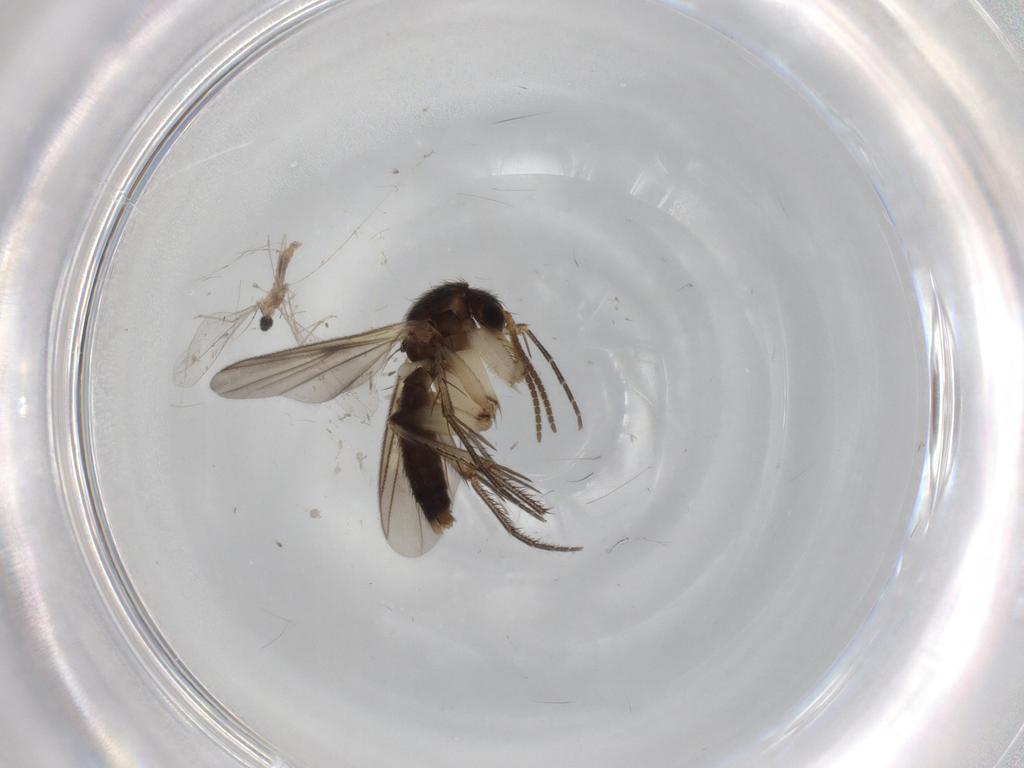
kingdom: Animalia
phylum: Arthropoda
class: Insecta
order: Diptera
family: Mycetophilidae
